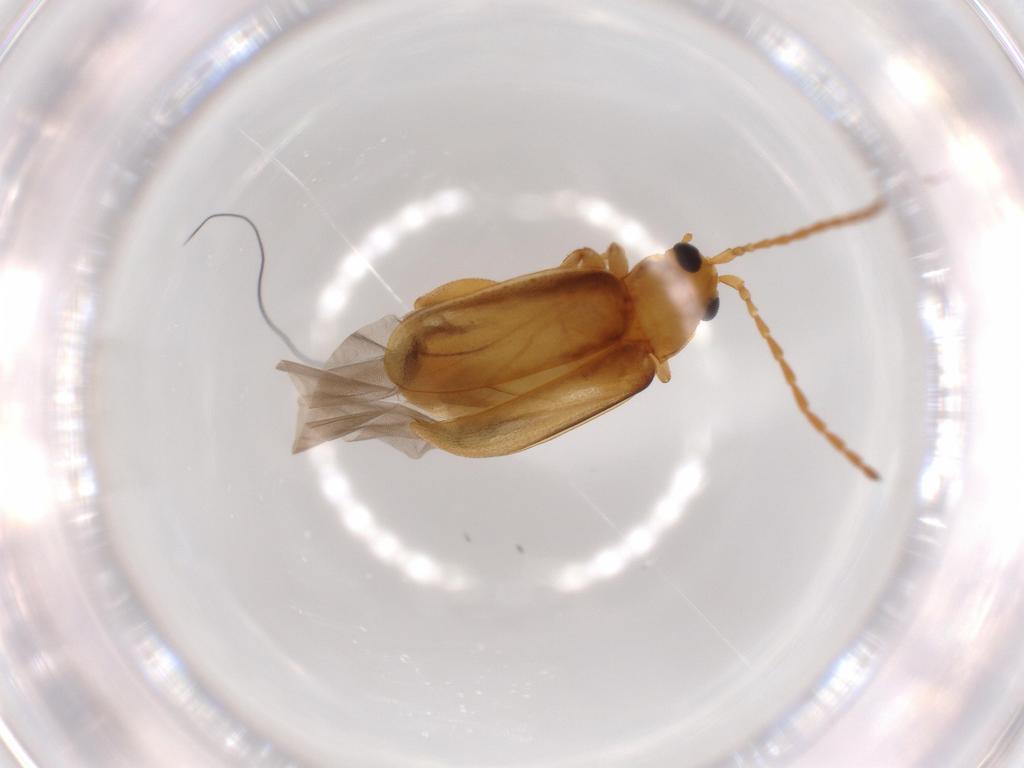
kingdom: Animalia
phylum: Arthropoda
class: Insecta
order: Coleoptera
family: Chrysomelidae
